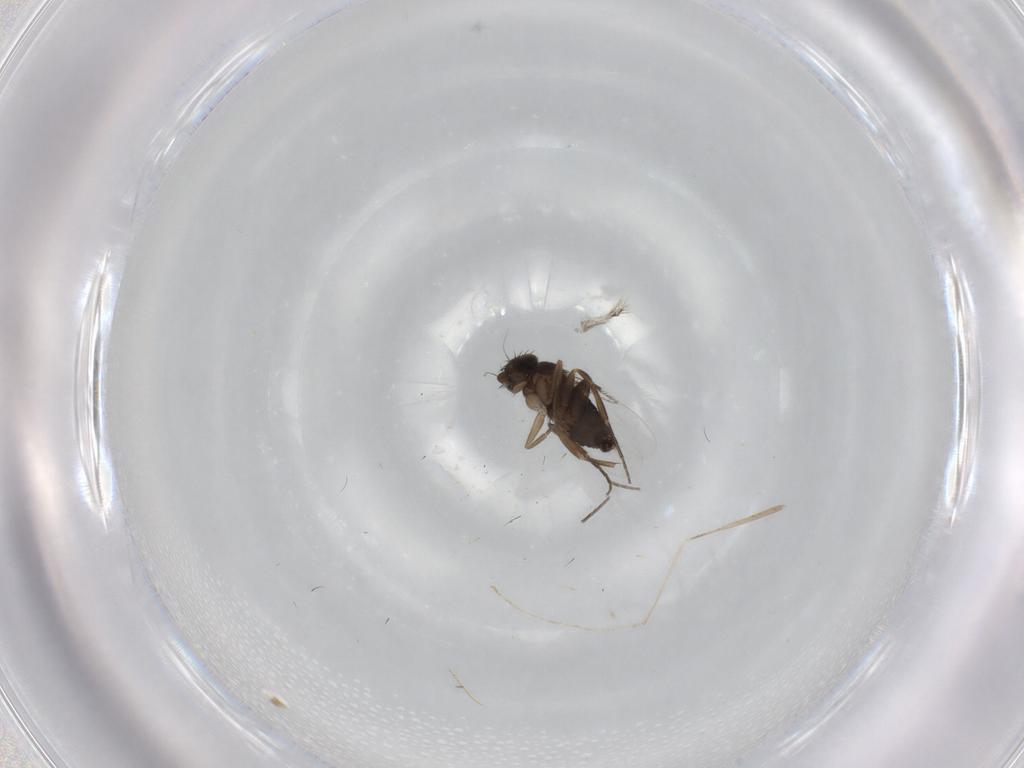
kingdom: Animalia
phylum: Arthropoda
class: Insecta
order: Diptera
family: Phoridae
